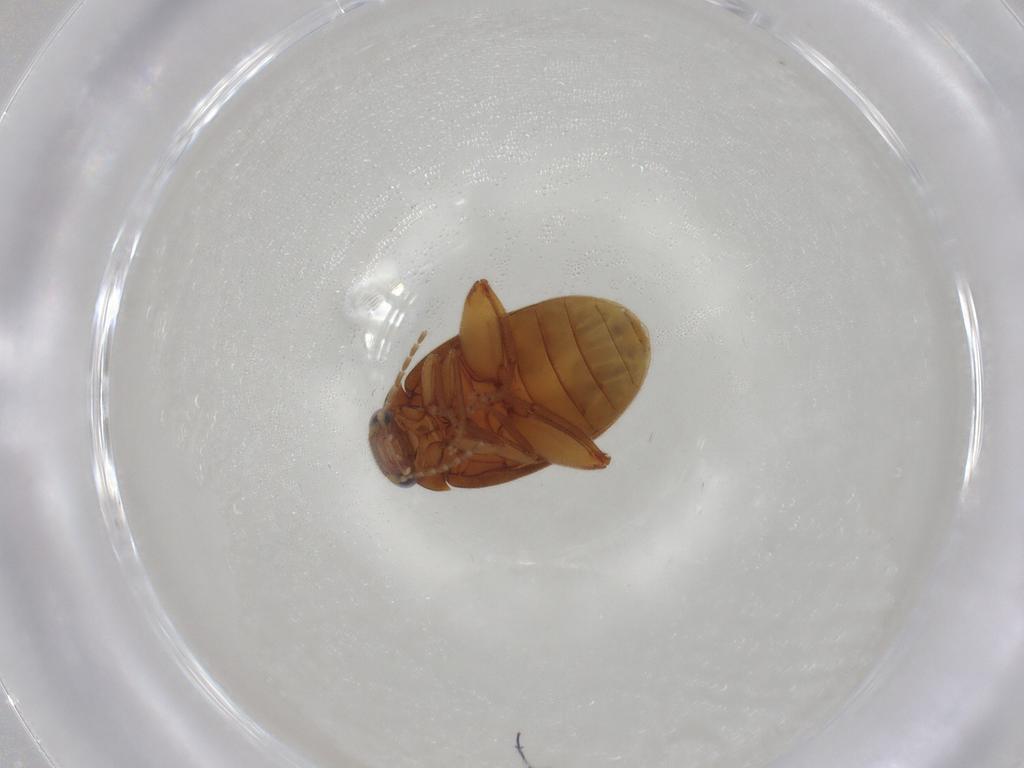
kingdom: Animalia
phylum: Arthropoda
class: Insecta
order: Coleoptera
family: Scirtidae
